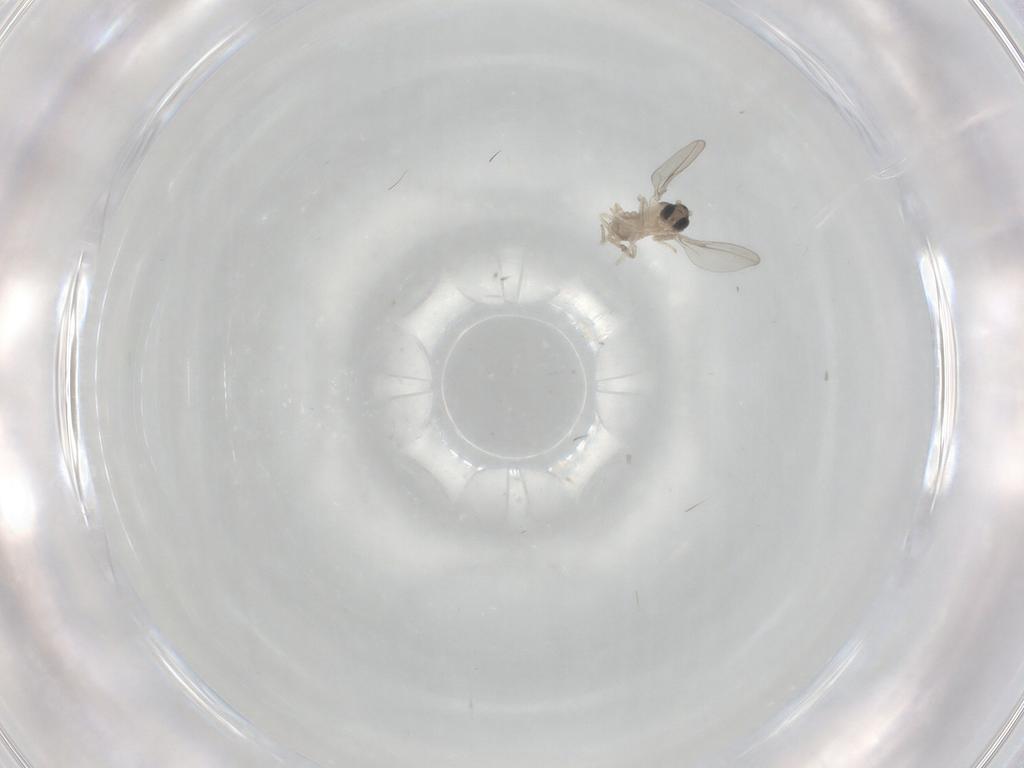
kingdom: Animalia
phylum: Arthropoda
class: Insecta
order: Diptera
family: Cecidomyiidae
